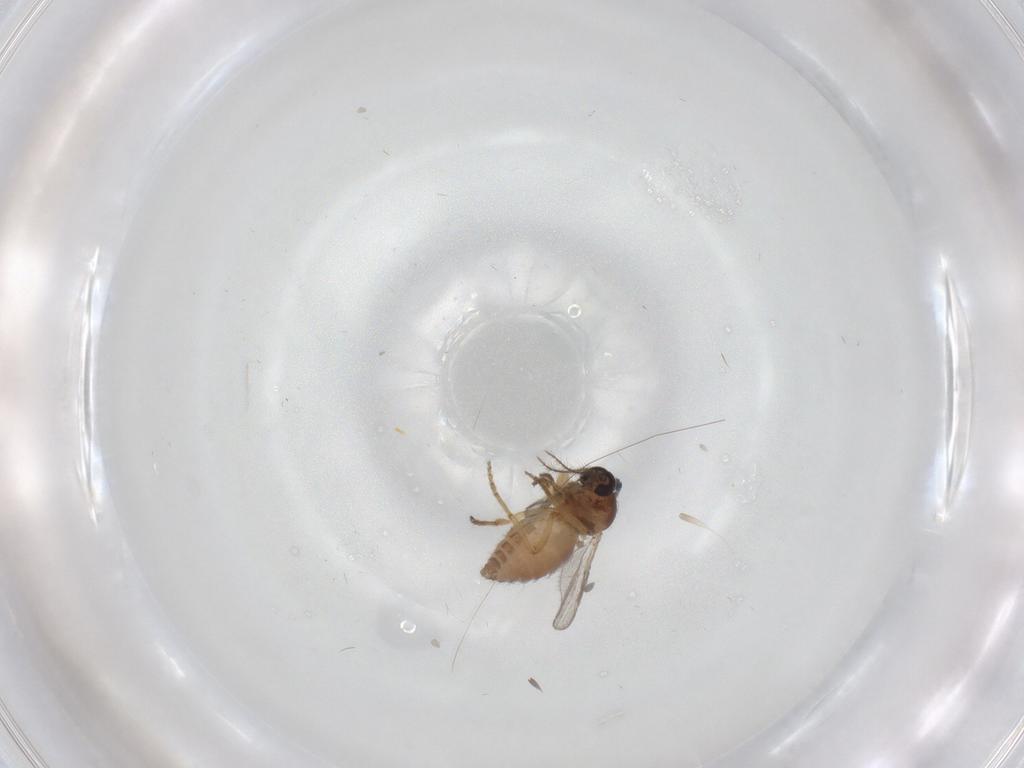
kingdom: Animalia
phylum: Arthropoda
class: Insecta
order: Diptera
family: Ceratopogonidae
